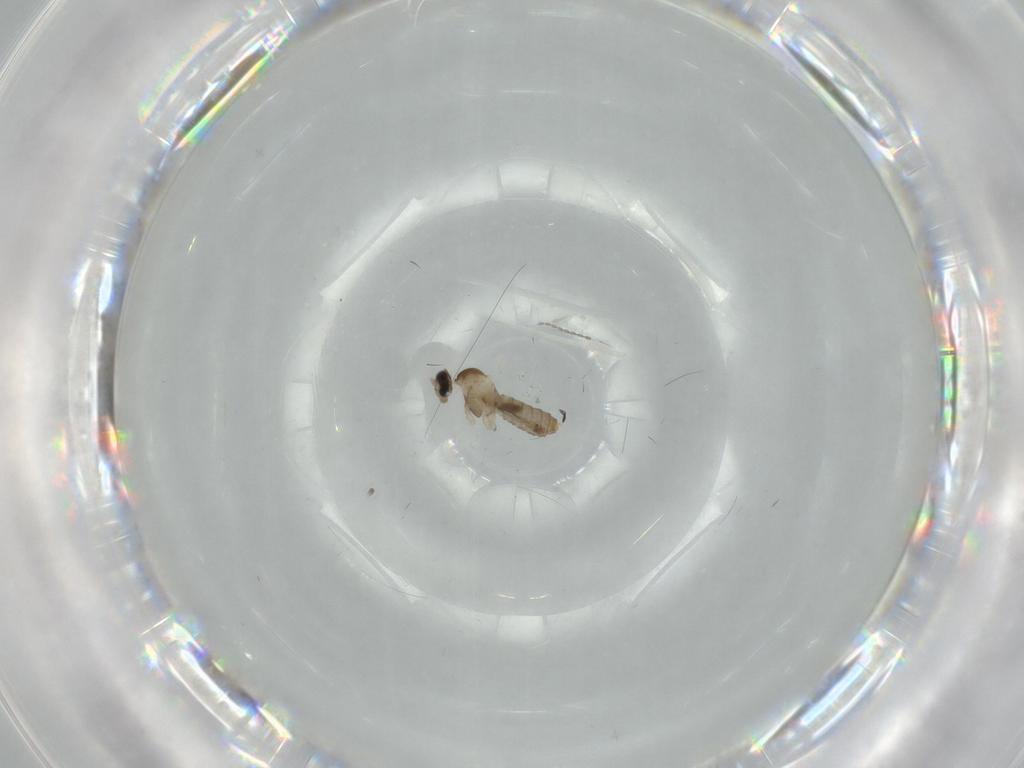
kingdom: Animalia
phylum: Arthropoda
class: Insecta
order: Diptera
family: Cecidomyiidae
